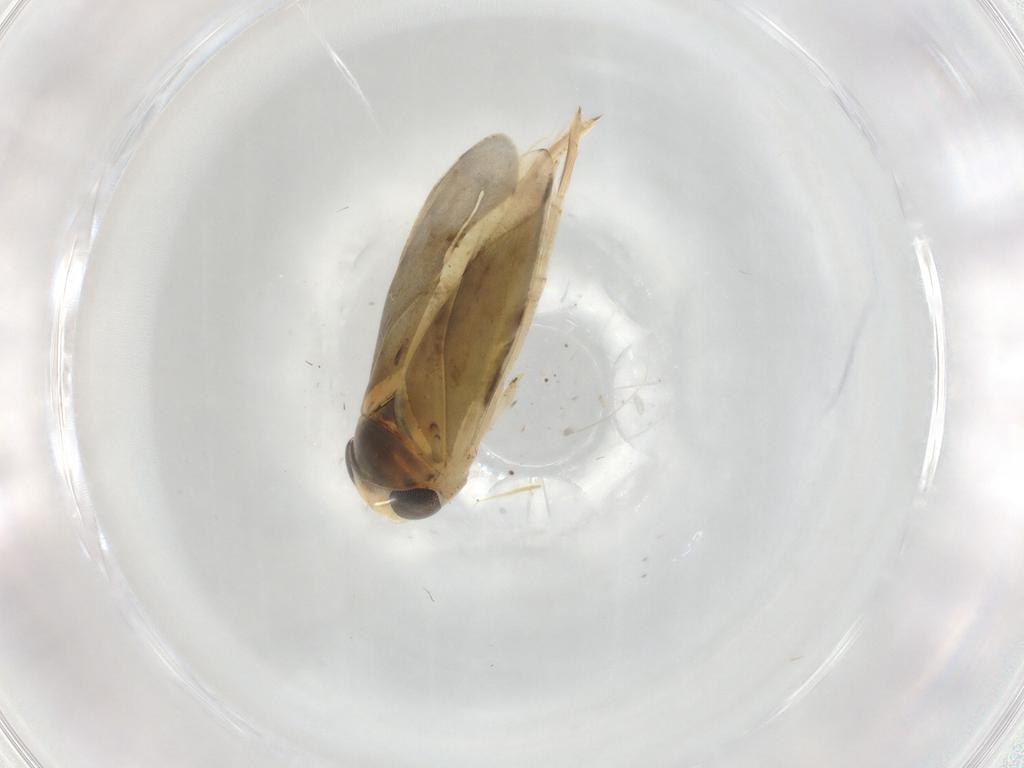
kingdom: Animalia
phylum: Arthropoda
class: Insecta
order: Hemiptera
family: Corixidae
